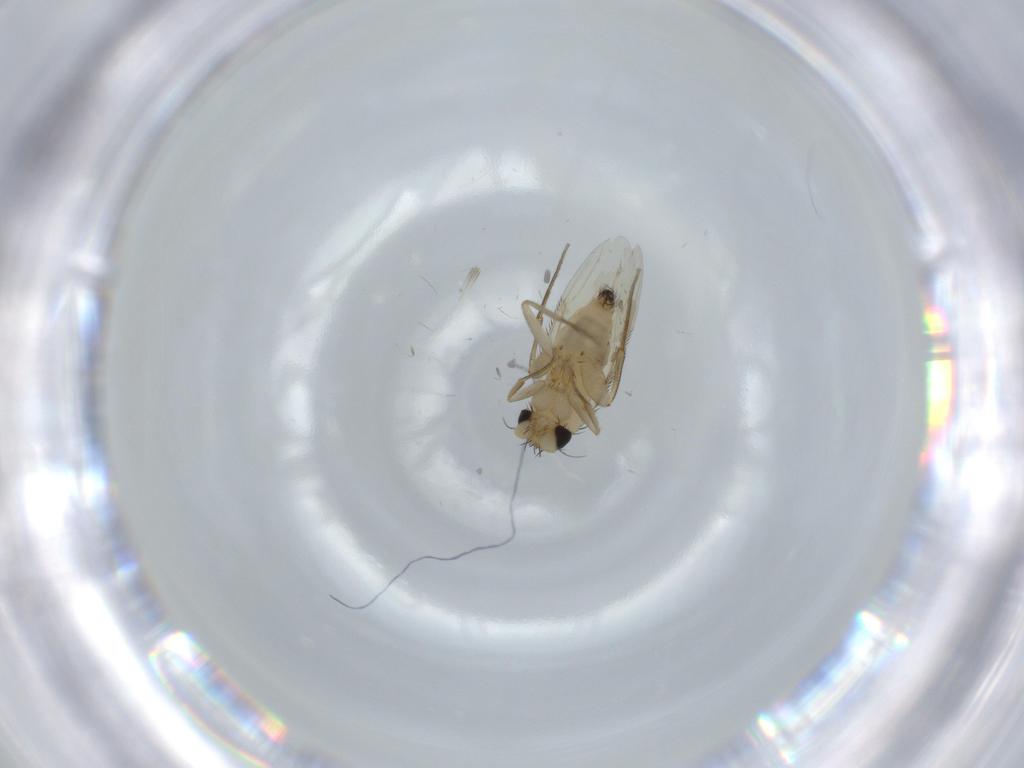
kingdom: Animalia
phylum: Arthropoda
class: Insecta
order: Diptera
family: Phoridae
